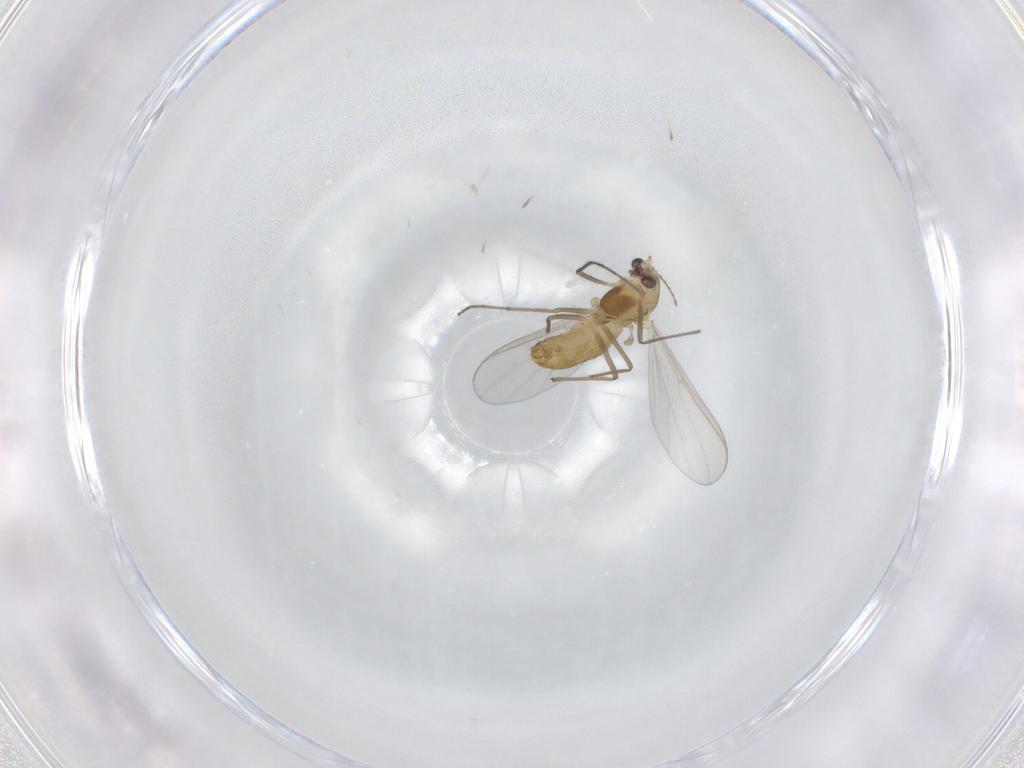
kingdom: Animalia
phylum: Arthropoda
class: Insecta
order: Diptera
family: Chironomidae
